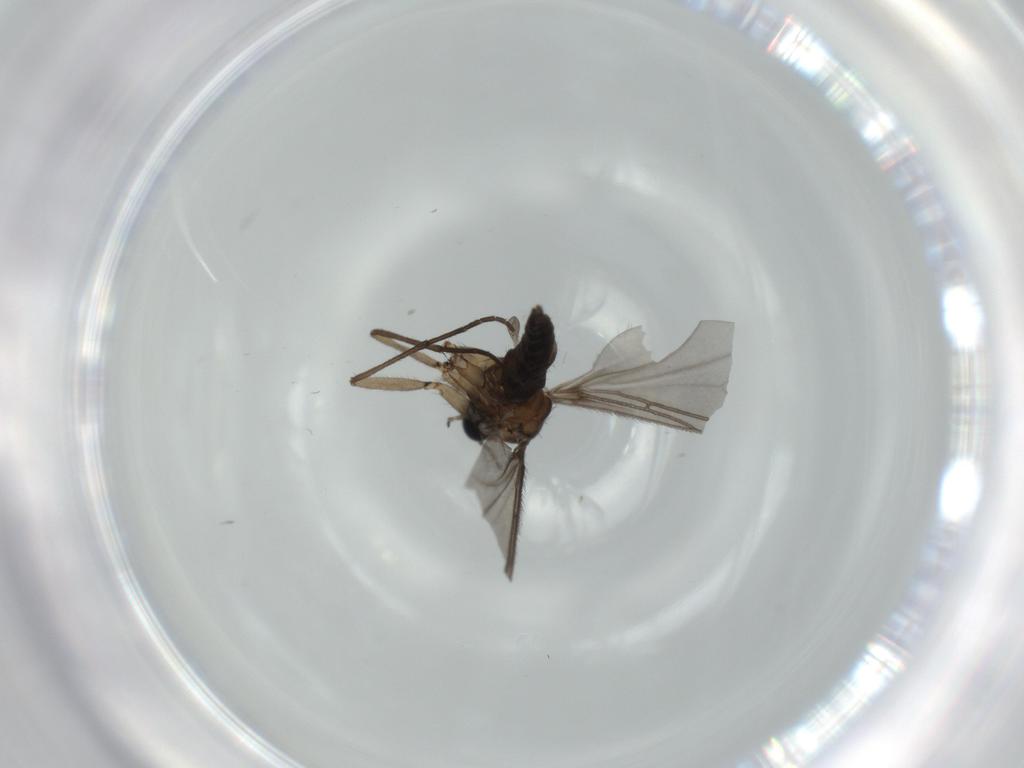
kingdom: Animalia
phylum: Arthropoda
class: Insecta
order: Diptera
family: Sciaridae
